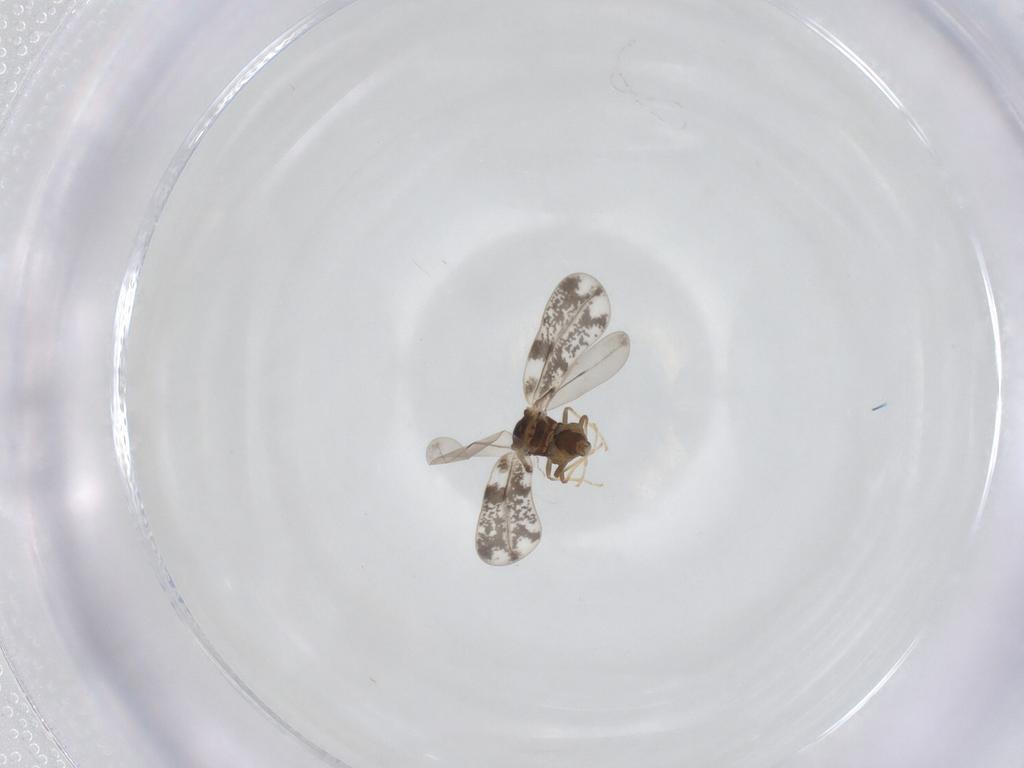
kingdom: Animalia
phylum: Arthropoda
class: Insecta
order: Hemiptera
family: Aleyrodidae
